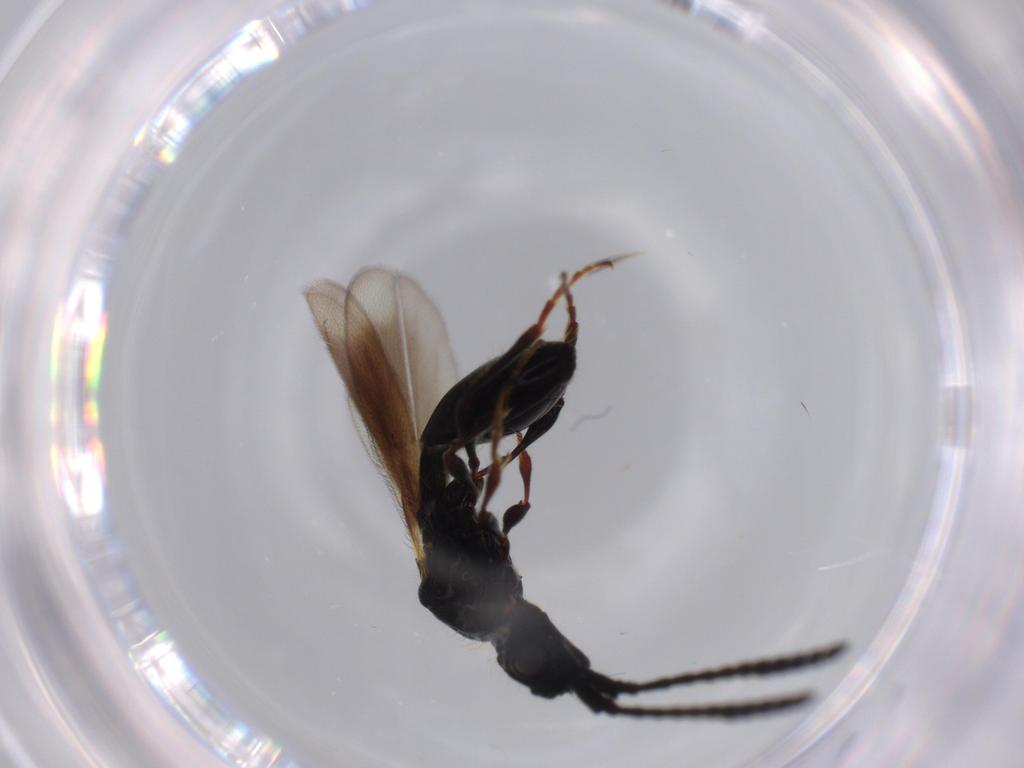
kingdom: Animalia
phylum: Arthropoda
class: Insecta
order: Hymenoptera
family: Diapriidae
